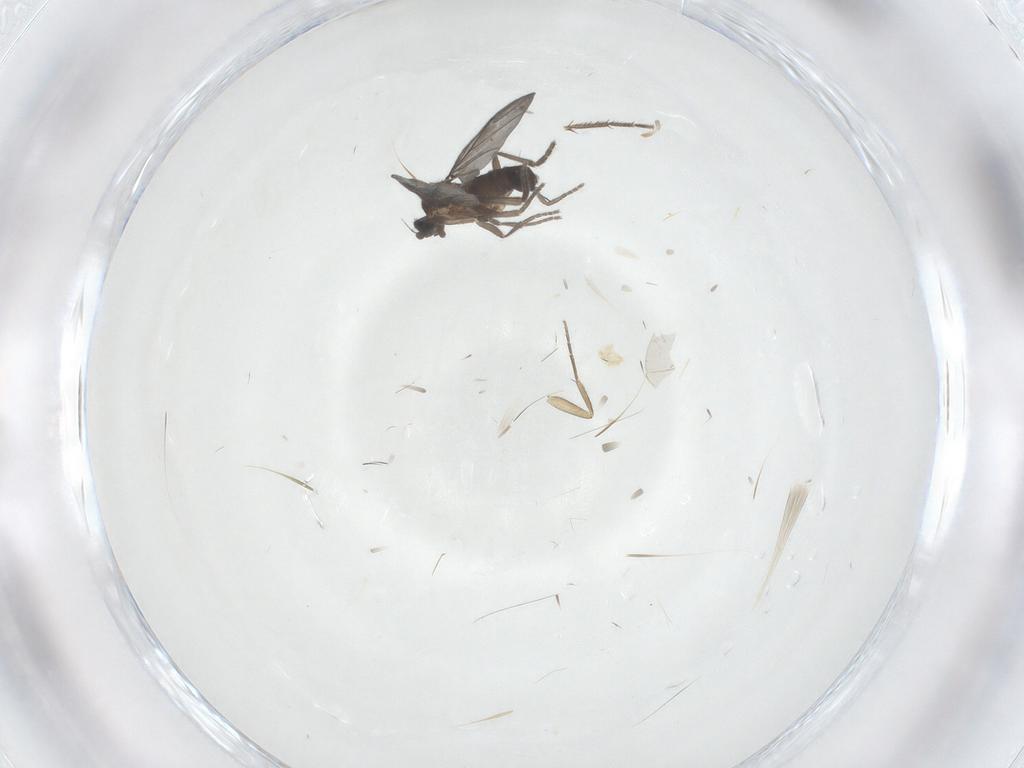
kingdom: Animalia
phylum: Arthropoda
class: Insecta
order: Diptera
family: Phoridae
